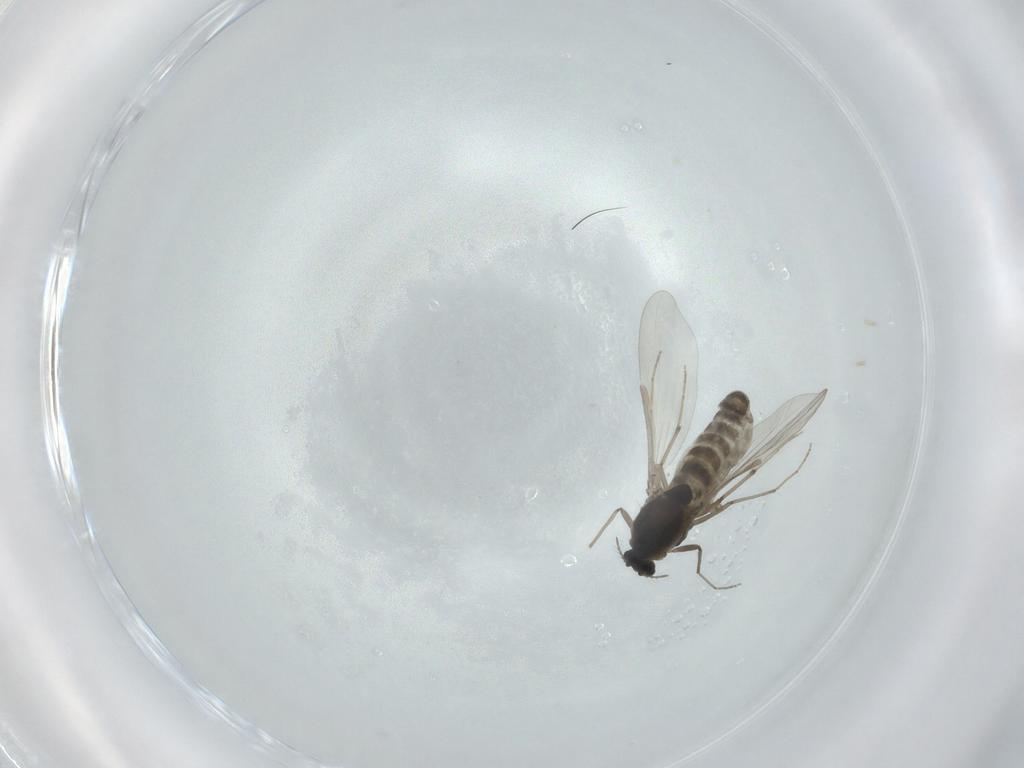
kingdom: Animalia
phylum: Arthropoda
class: Insecta
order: Diptera
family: Chironomidae
